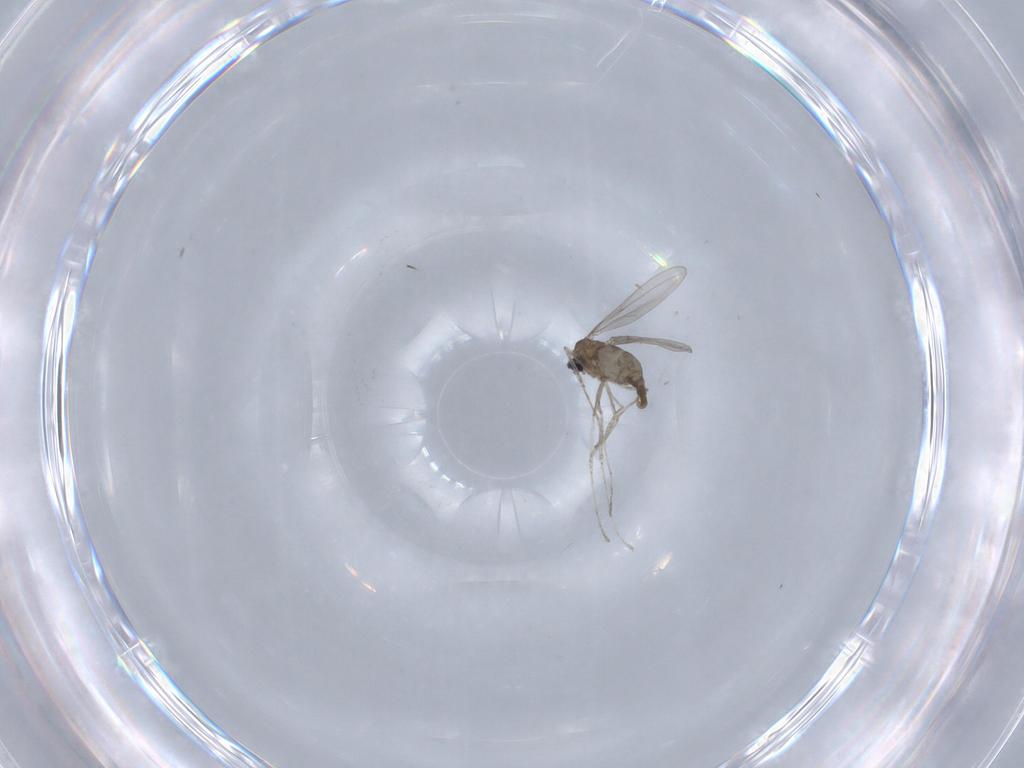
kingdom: Animalia
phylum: Arthropoda
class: Insecta
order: Diptera
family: Cecidomyiidae
